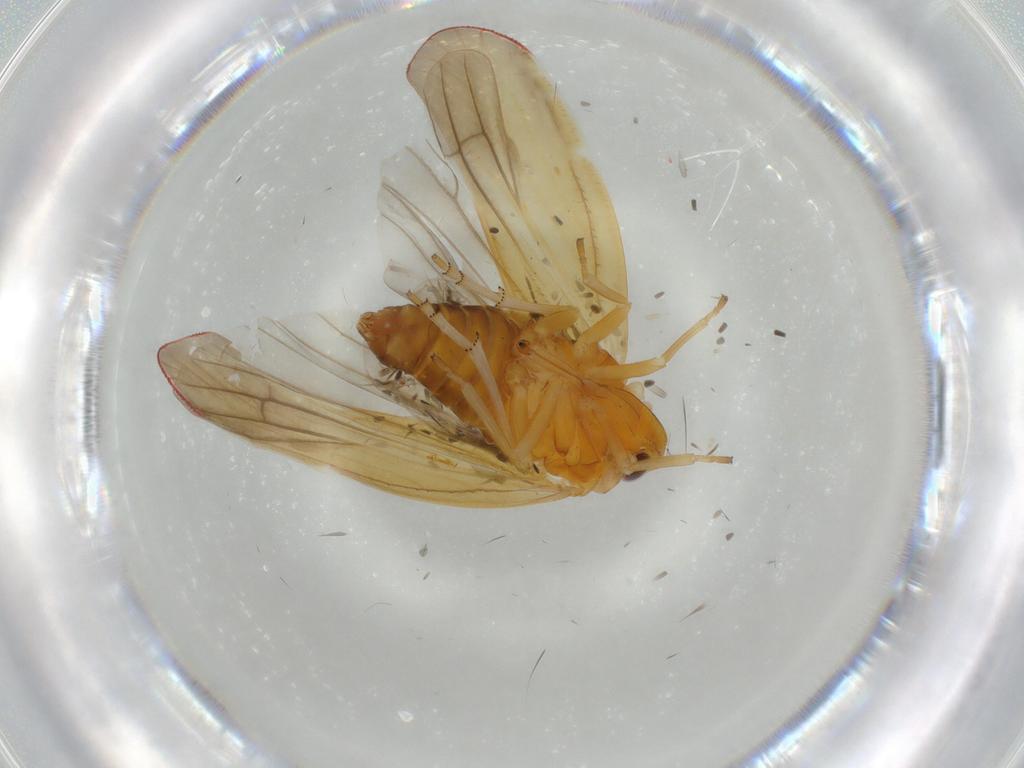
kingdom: Animalia
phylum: Arthropoda
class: Insecta
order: Hemiptera
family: Derbidae
